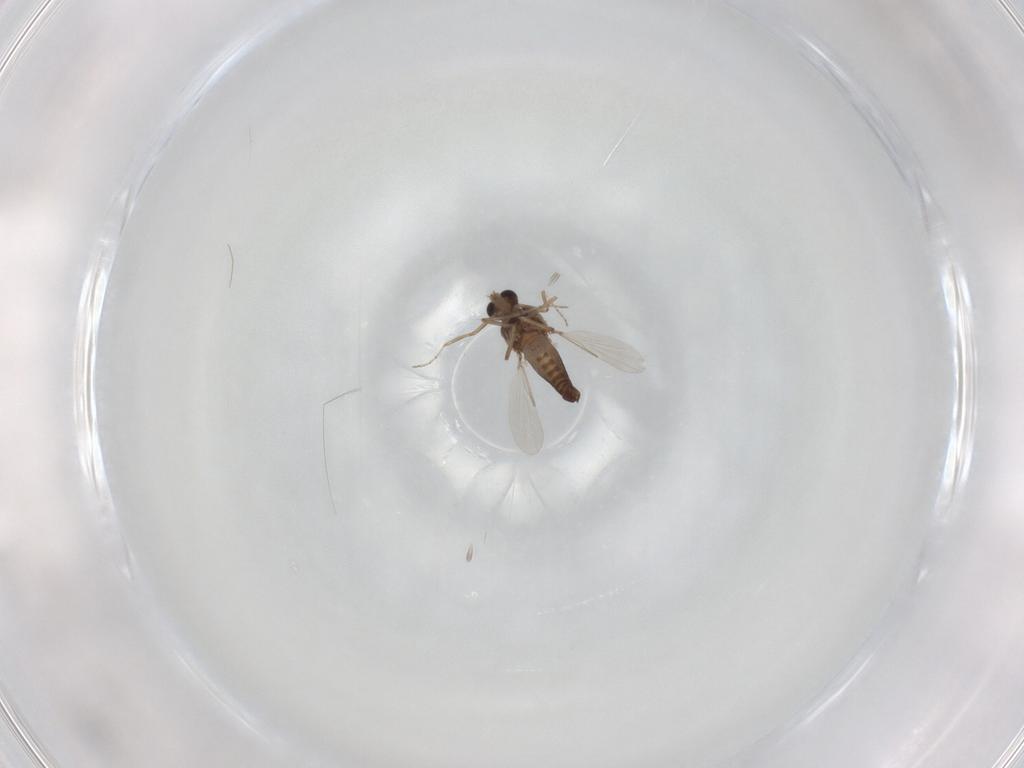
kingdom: Animalia
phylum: Arthropoda
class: Insecta
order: Diptera
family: Ceratopogonidae
